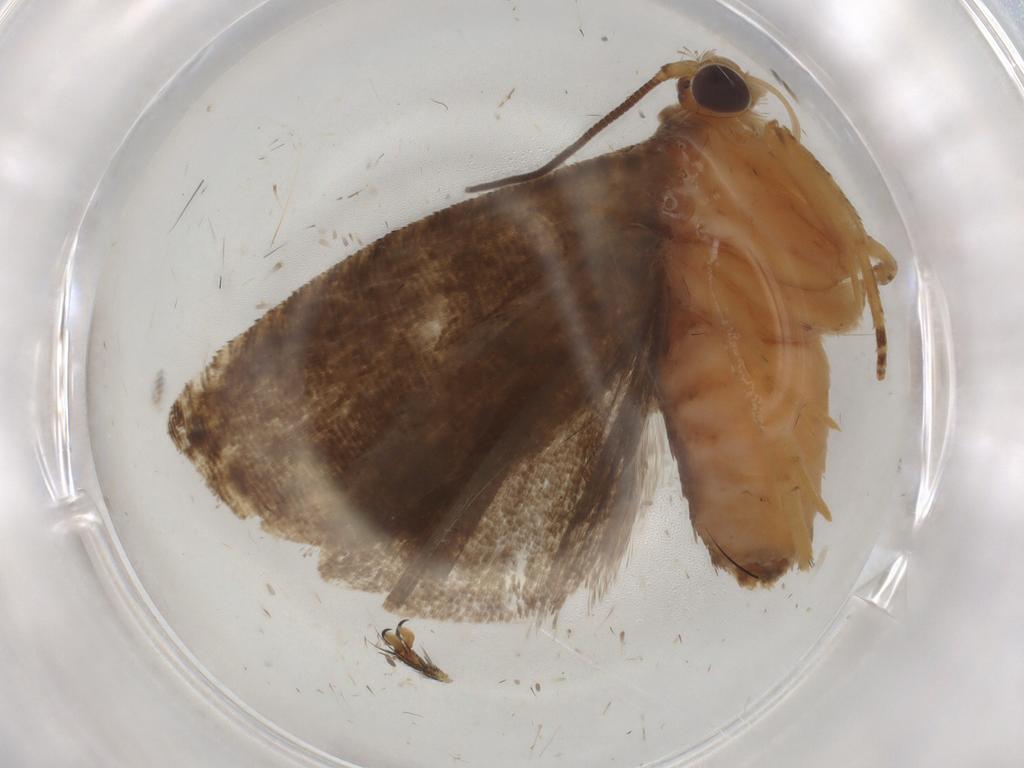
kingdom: Animalia
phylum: Arthropoda
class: Insecta
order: Lepidoptera
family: Tortricidae
